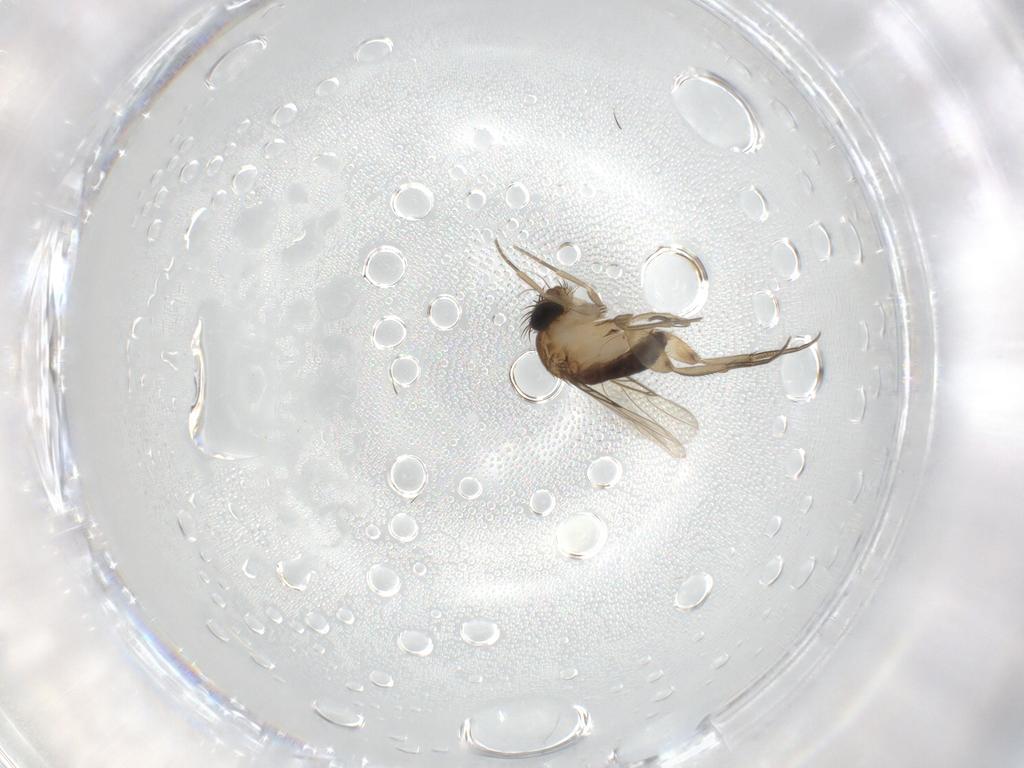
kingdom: Animalia
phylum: Arthropoda
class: Insecta
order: Diptera
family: Phoridae
